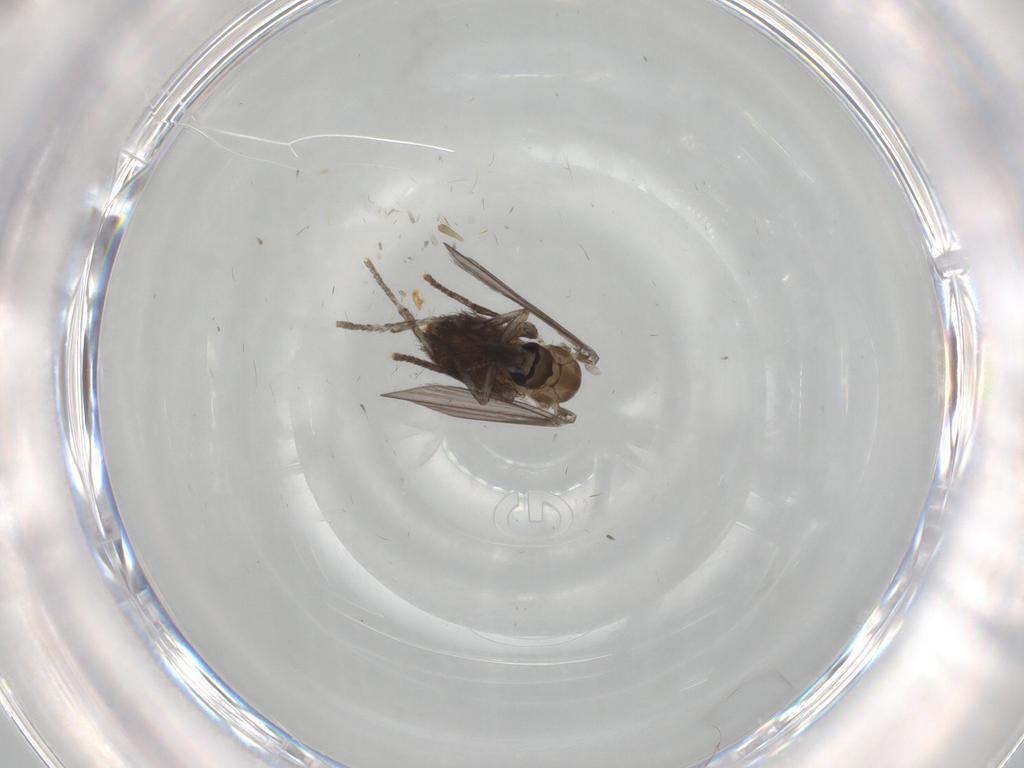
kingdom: Animalia
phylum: Arthropoda
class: Insecta
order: Diptera
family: Psychodidae
